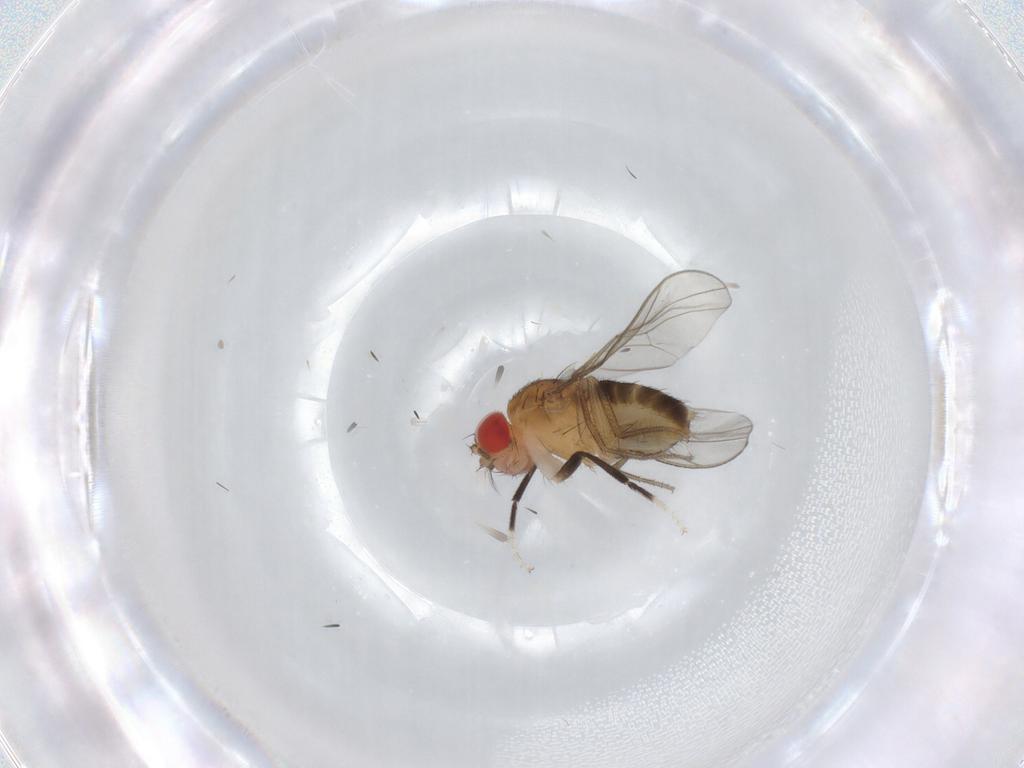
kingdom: Animalia
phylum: Arthropoda
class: Insecta
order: Diptera
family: Drosophilidae
